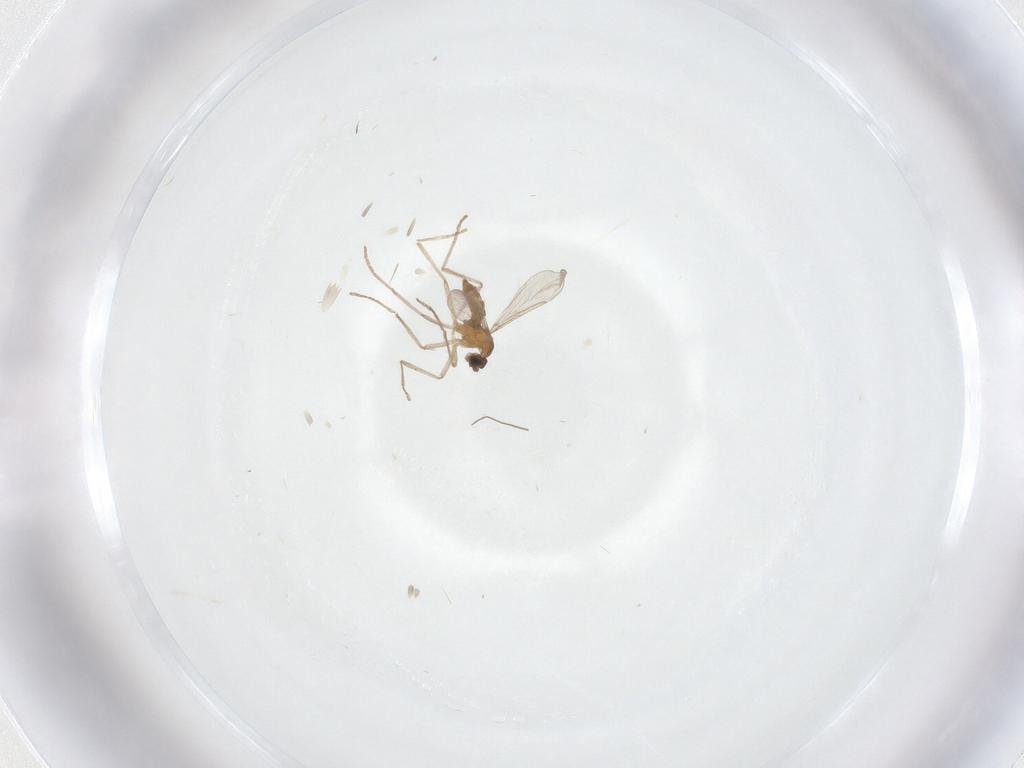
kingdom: Animalia
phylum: Arthropoda
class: Insecta
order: Diptera
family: Cecidomyiidae
